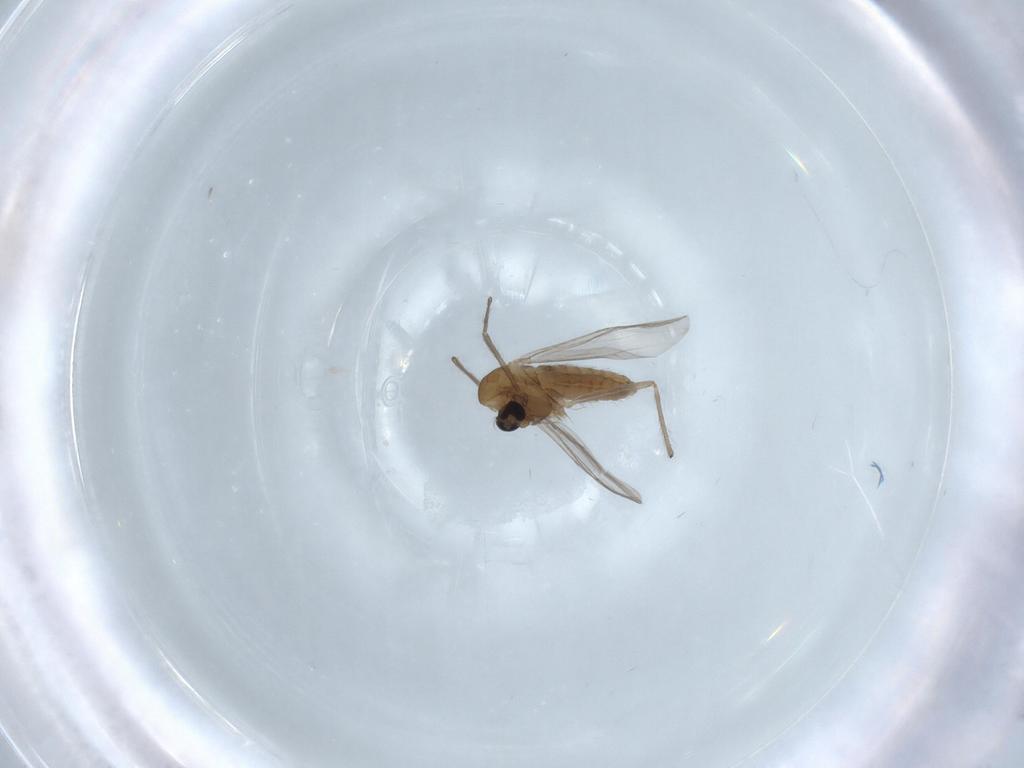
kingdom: Animalia
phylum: Arthropoda
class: Insecta
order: Diptera
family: Chironomidae
